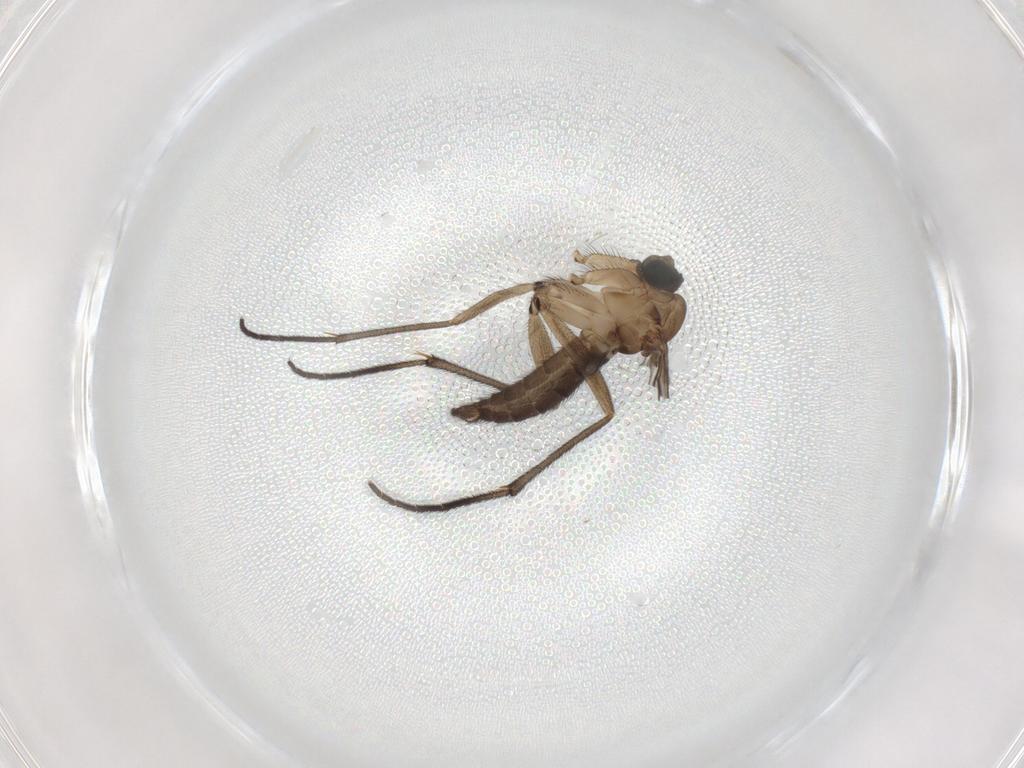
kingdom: Animalia
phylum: Arthropoda
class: Insecta
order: Diptera
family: Sciaridae
